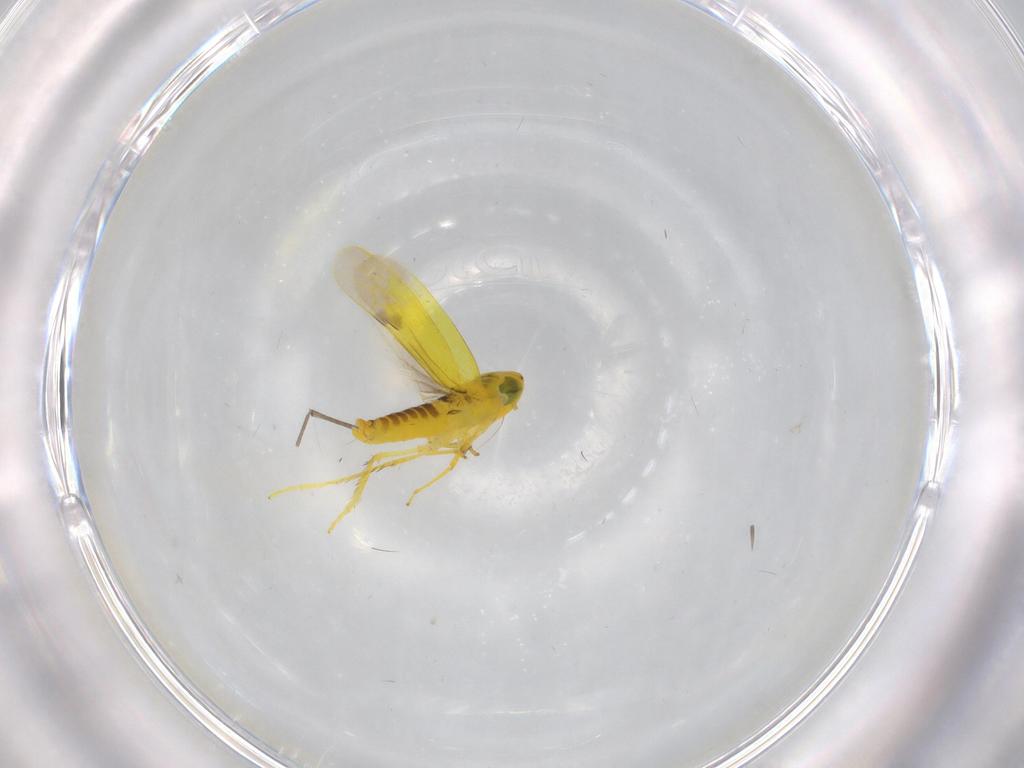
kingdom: Animalia
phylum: Arthropoda
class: Insecta
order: Hemiptera
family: Cicadellidae
